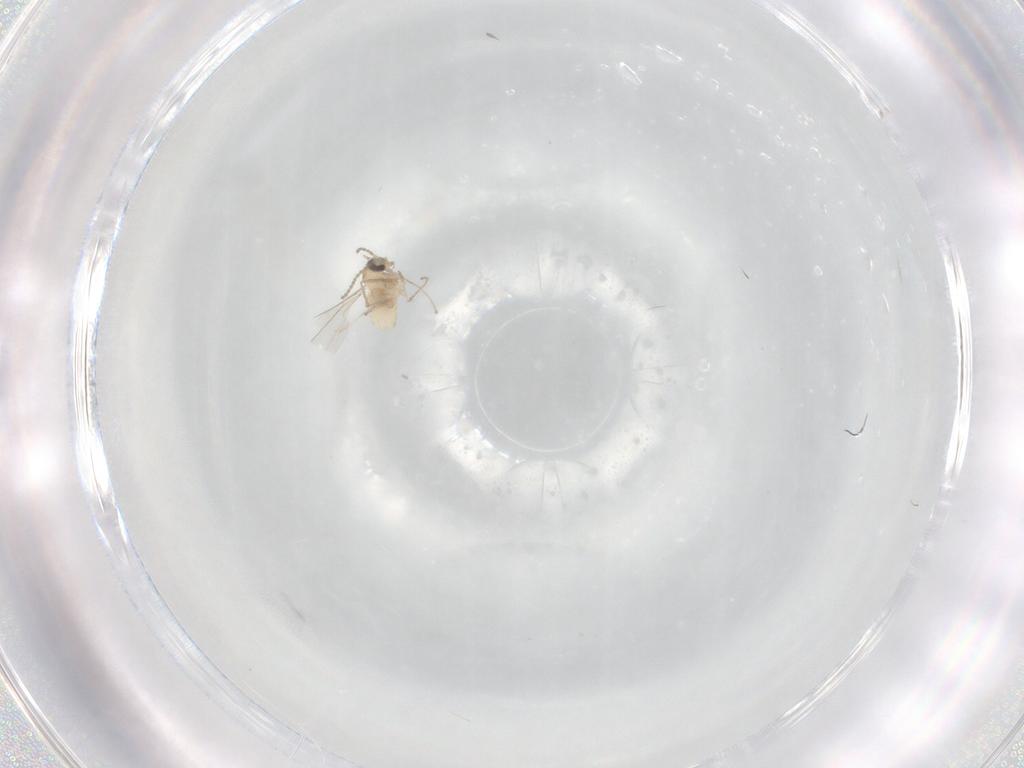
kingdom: Animalia
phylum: Arthropoda
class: Insecta
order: Diptera
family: Cecidomyiidae
